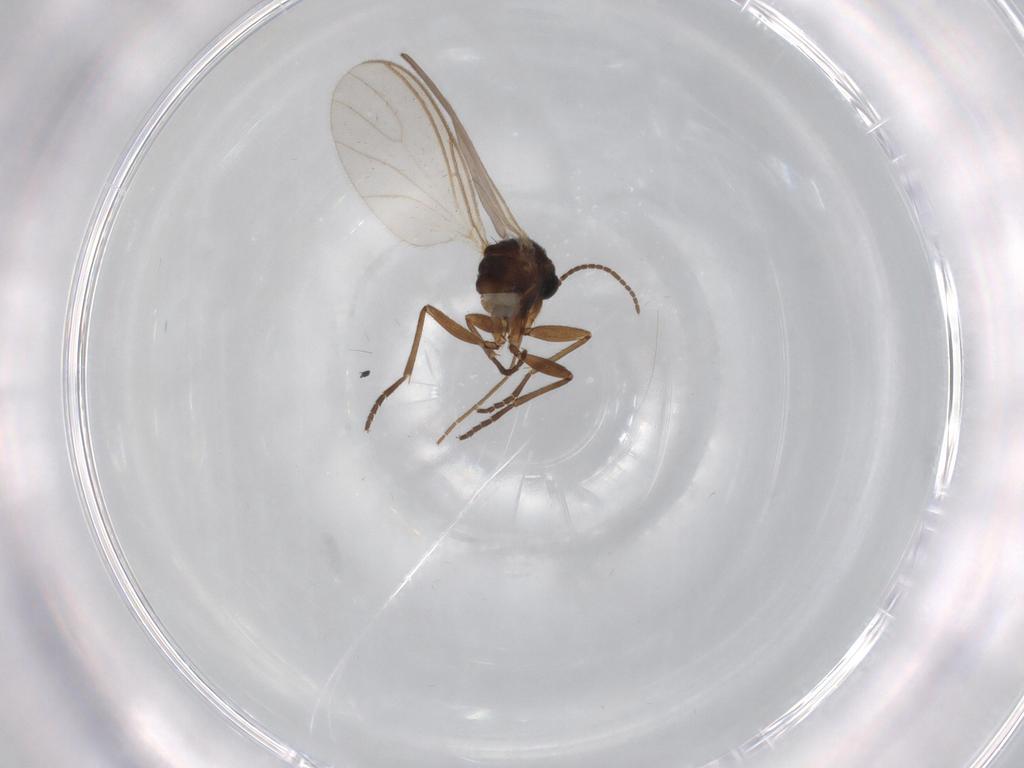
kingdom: Animalia
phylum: Arthropoda
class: Insecta
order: Diptera
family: Sciaridae
